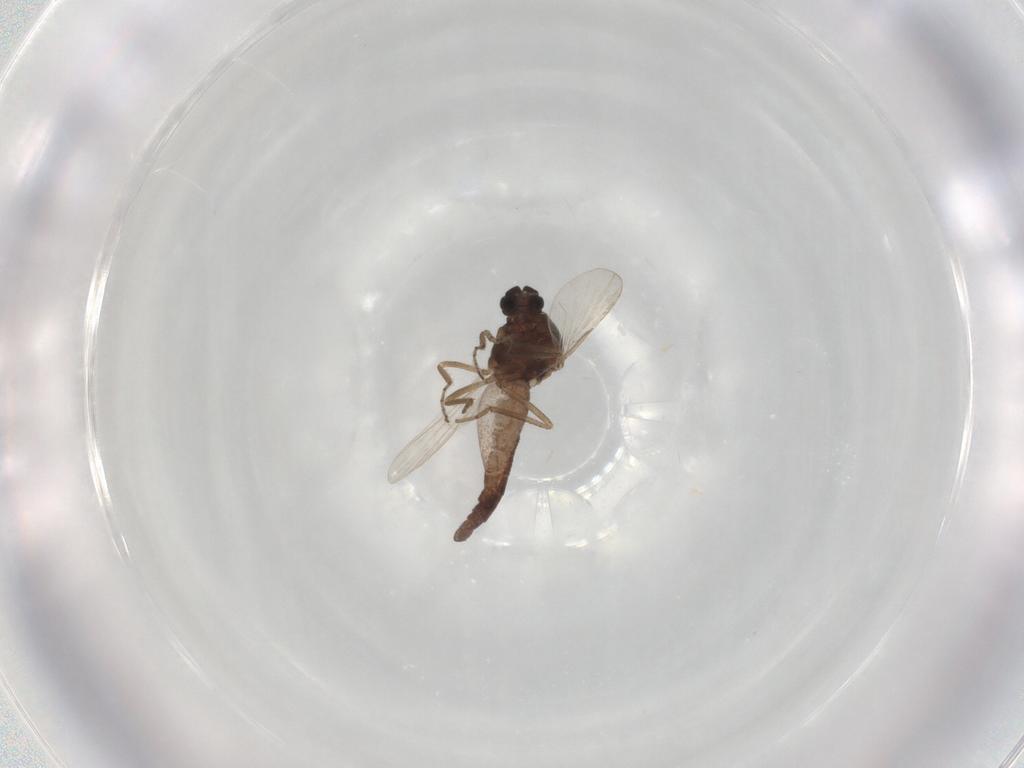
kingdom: Animalia
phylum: Arthropoda
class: Insecta
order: Diptera
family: Ceratopogonidae
